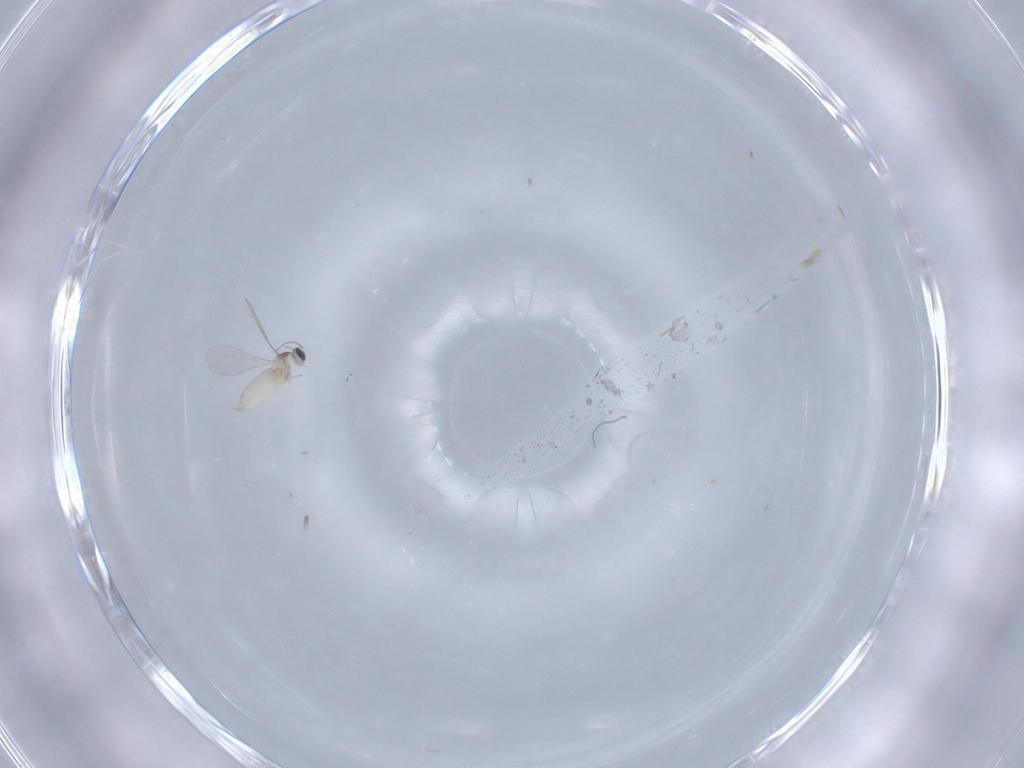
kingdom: Animalia
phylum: Arthropoda
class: Insecta
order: Diptera
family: Sciaridae
